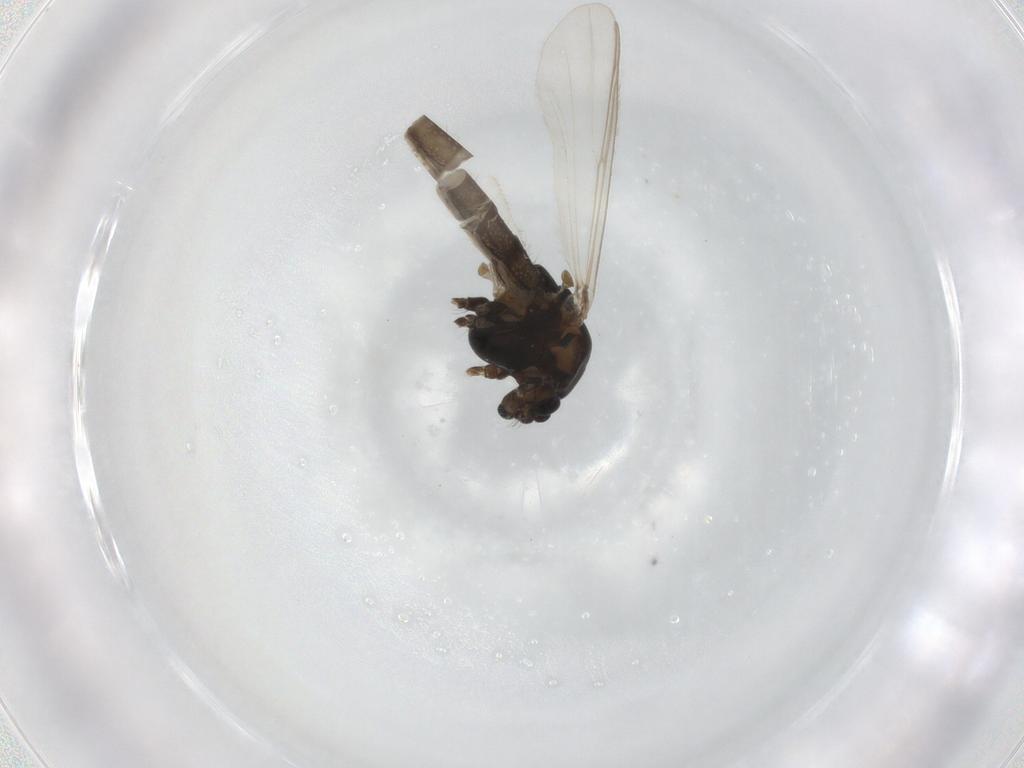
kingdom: Animalia
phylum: Arthropoda
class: Insecta
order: Diptera
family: Chironomidae
